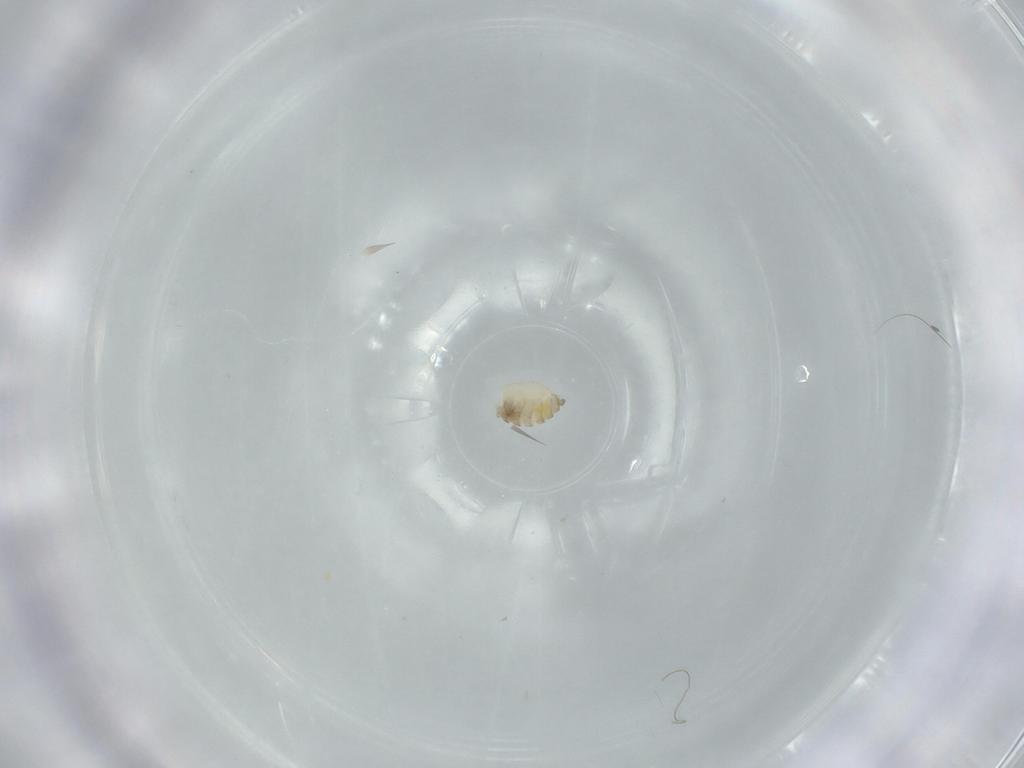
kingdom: Animalia
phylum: Arthropoda
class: Insecta
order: Diptera
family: Cecidomyiidae
